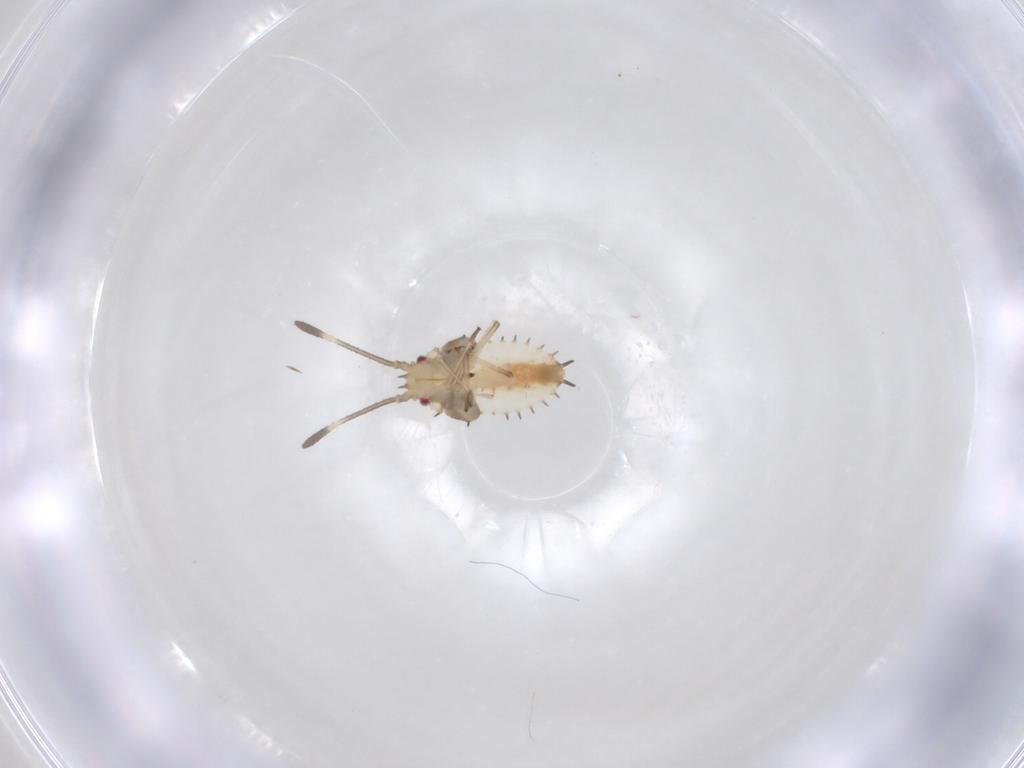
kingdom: Animalia
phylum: Arthropoda
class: Insecta
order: Hemiptera
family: Tingidae
